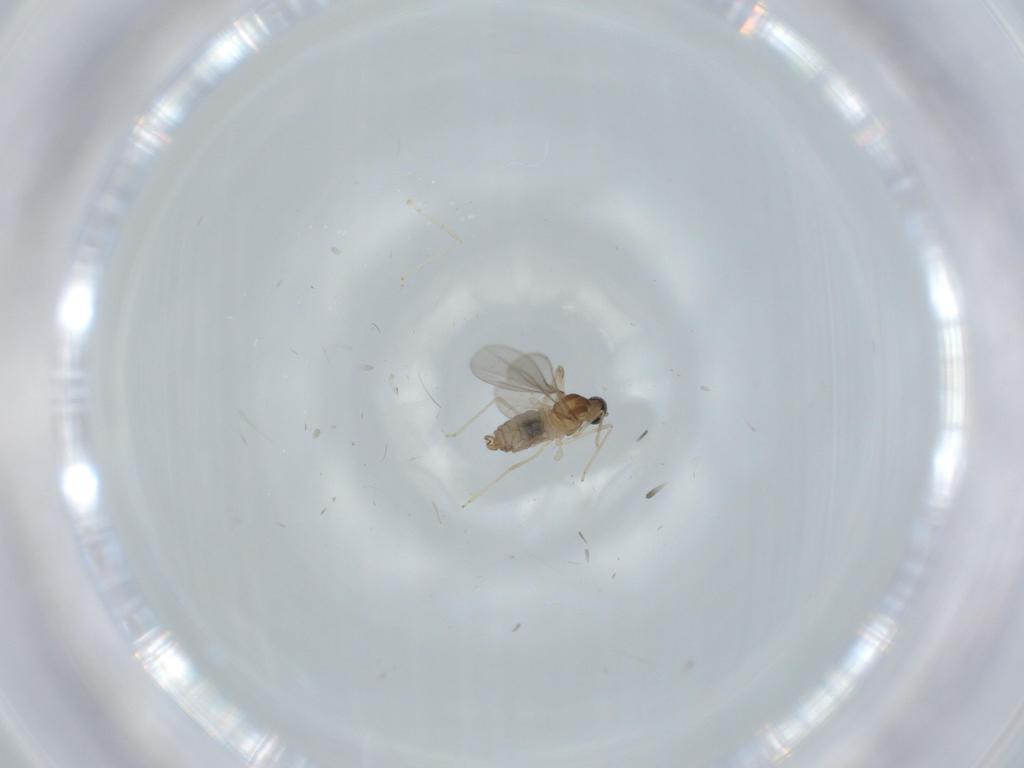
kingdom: Animalia
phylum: Arthropoda
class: Insecta
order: Diptera
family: Cecidomyiidae
